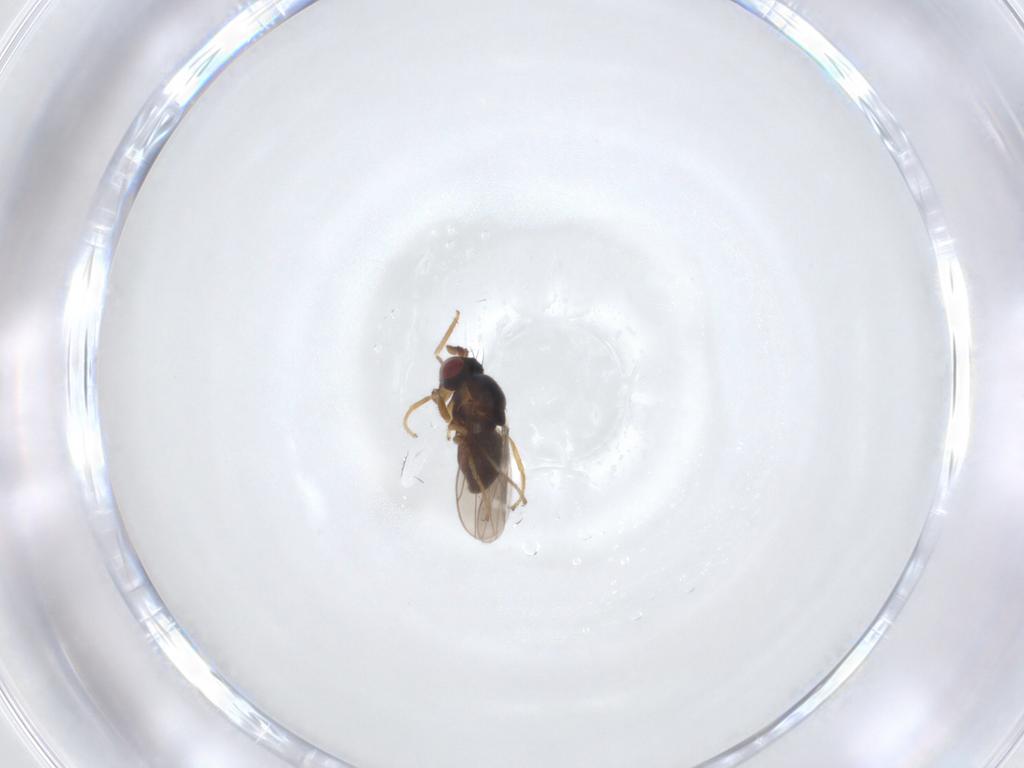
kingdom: Animalia
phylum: Arthropoda
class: Insecta
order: Diptera
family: Ephydridae
